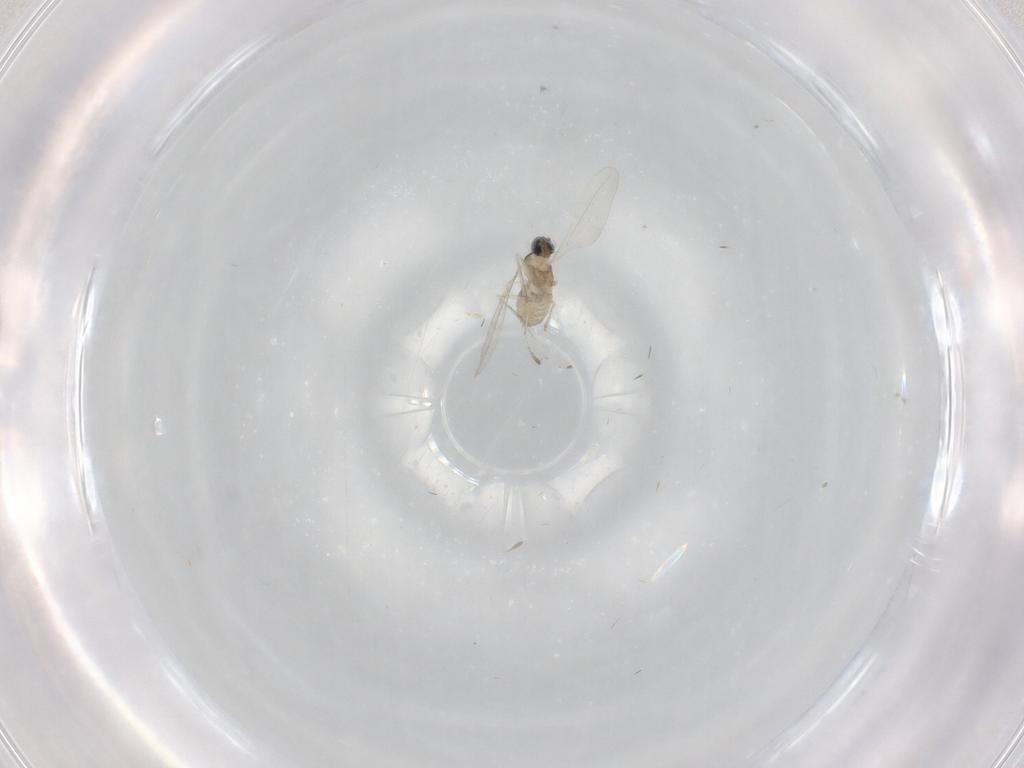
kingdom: Animalia
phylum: Arthropoda
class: Insecta
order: Diptera
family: Cecidomyiidae
